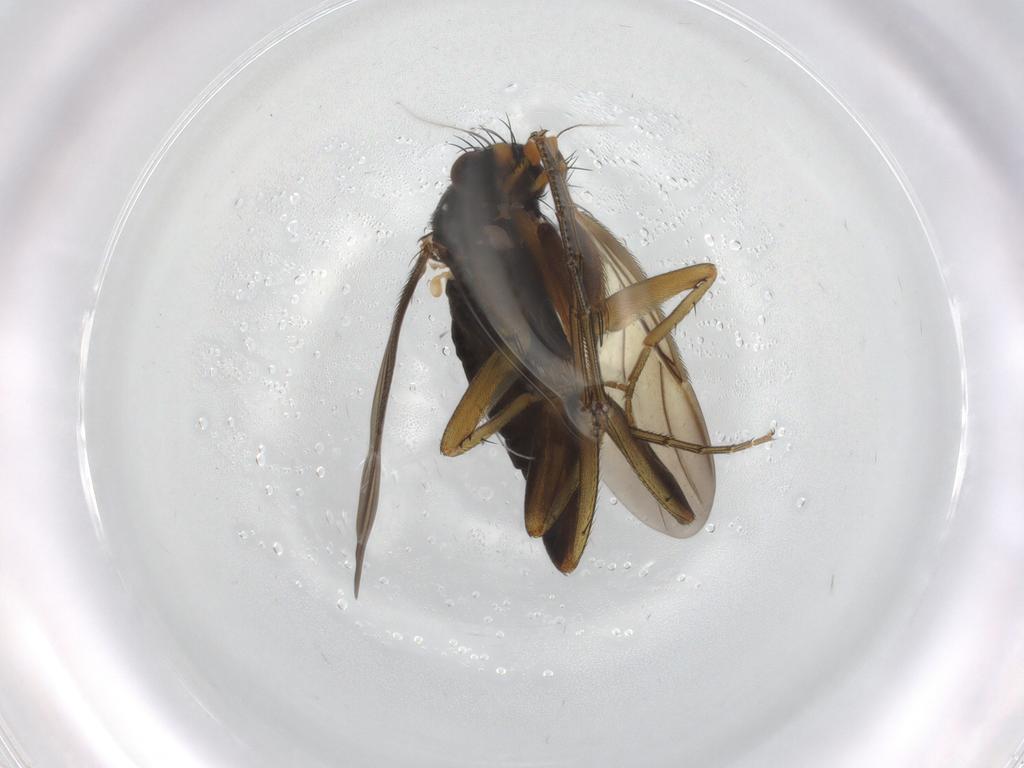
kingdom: Animalia
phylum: Arthropoda
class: Insecta
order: Diptera
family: Phoridae
